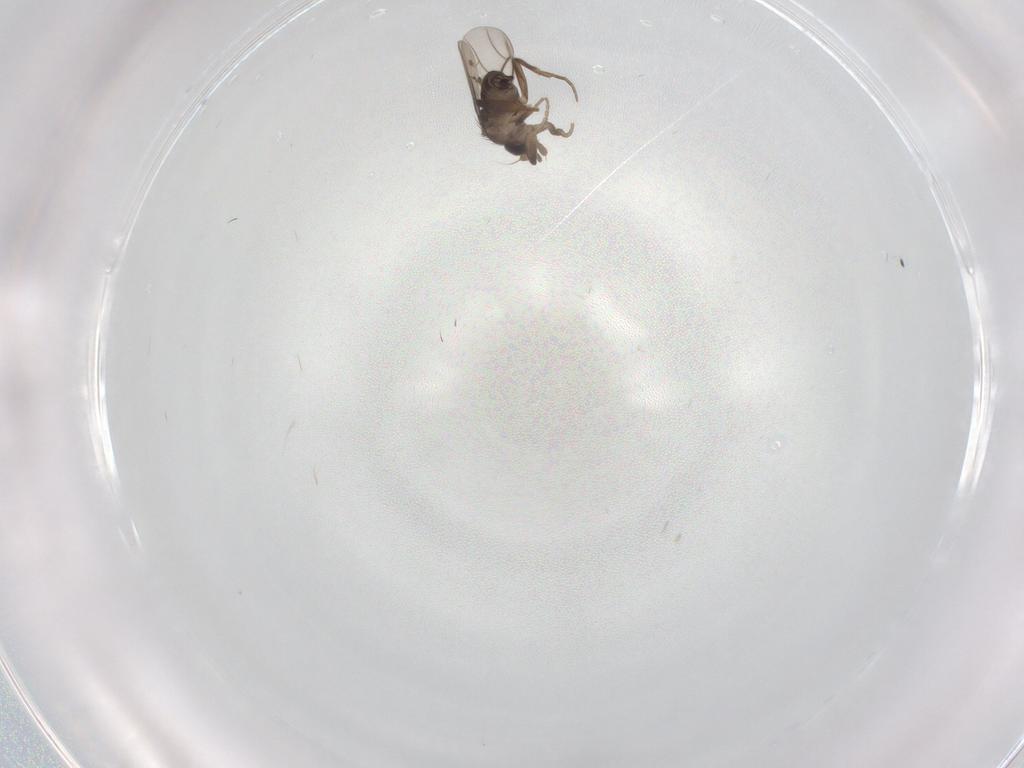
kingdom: Animalia
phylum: Arthropoda
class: Insecta
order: Diptera
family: Phoridae
